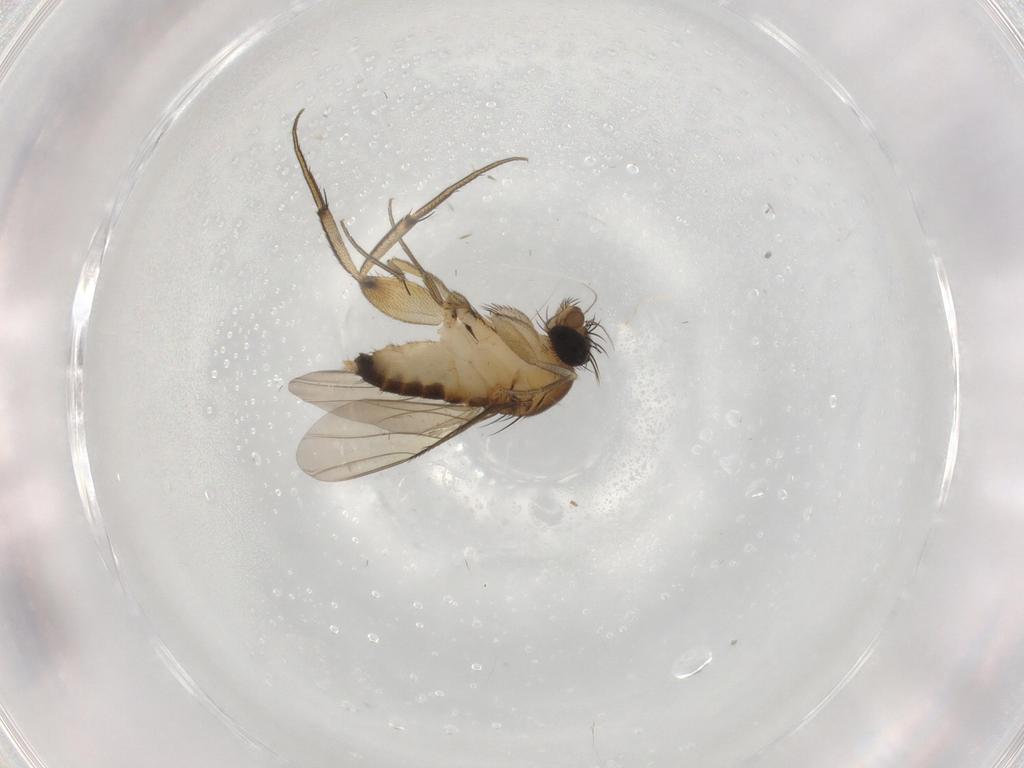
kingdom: Animalia
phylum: Arthropoda
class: Insecta
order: Diptera
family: Phoridae
